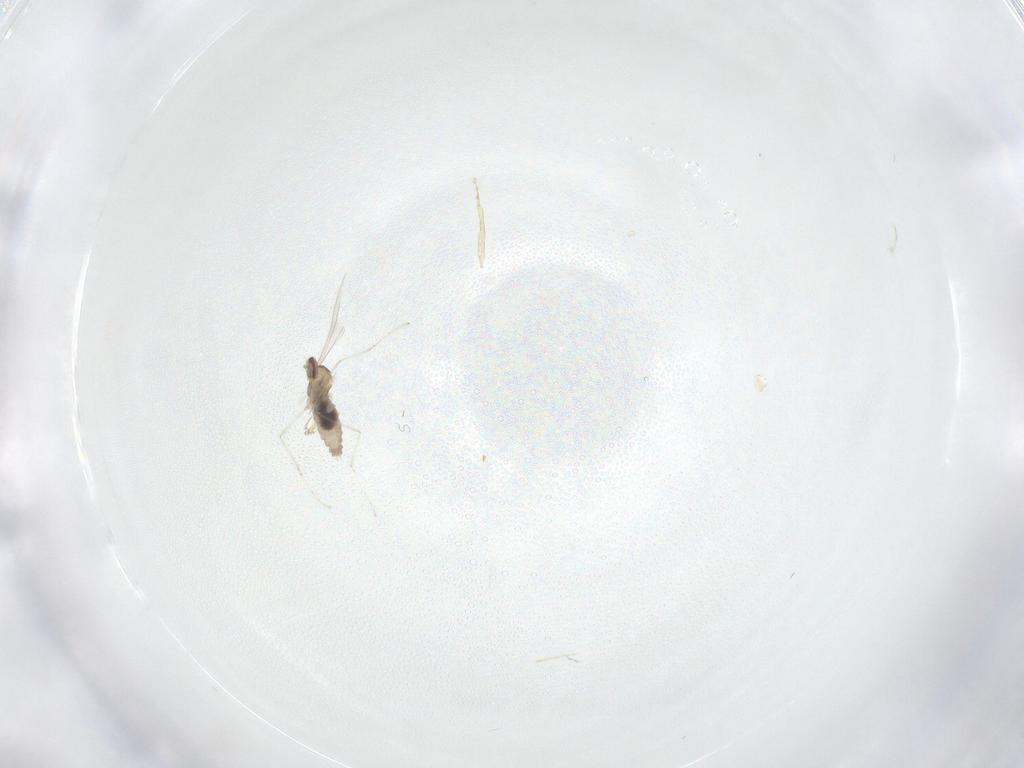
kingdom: Animalia
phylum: Arthropoda
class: Insecta
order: Diptera
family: Cecidomyiidae
